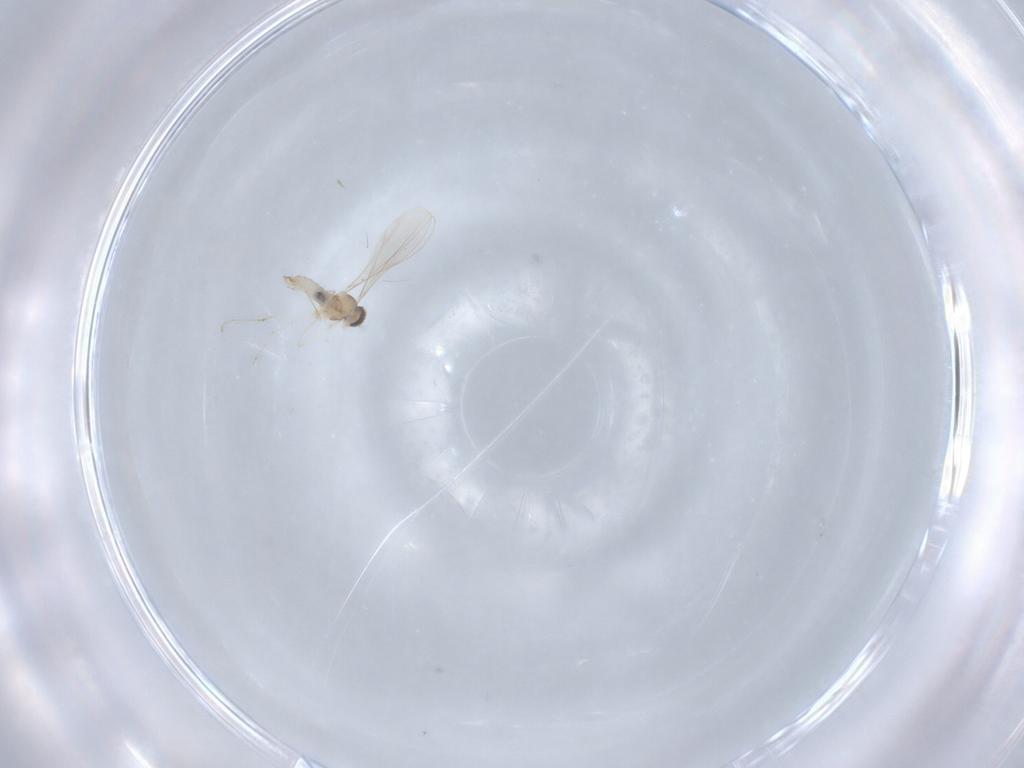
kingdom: Animalia
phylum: Arthropoda
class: Insecta
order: Diptera
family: Cecidomyiidae
